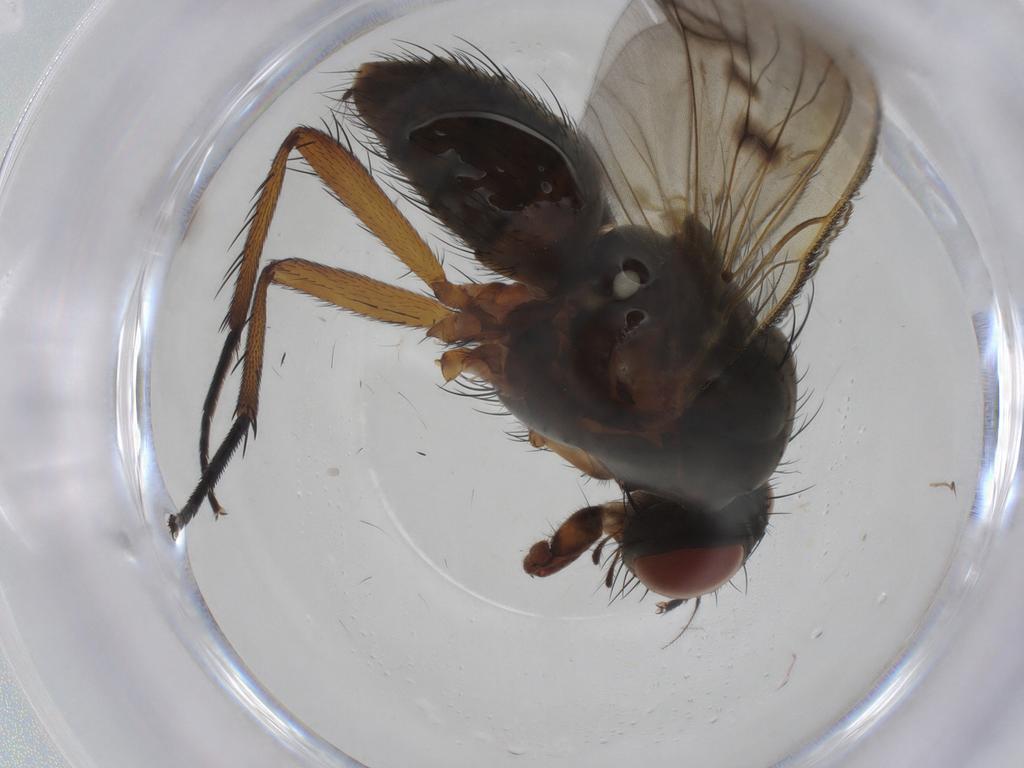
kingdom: Animalia
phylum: Arthropoda
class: Insecta
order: Diptera
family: Anthomyiidae
